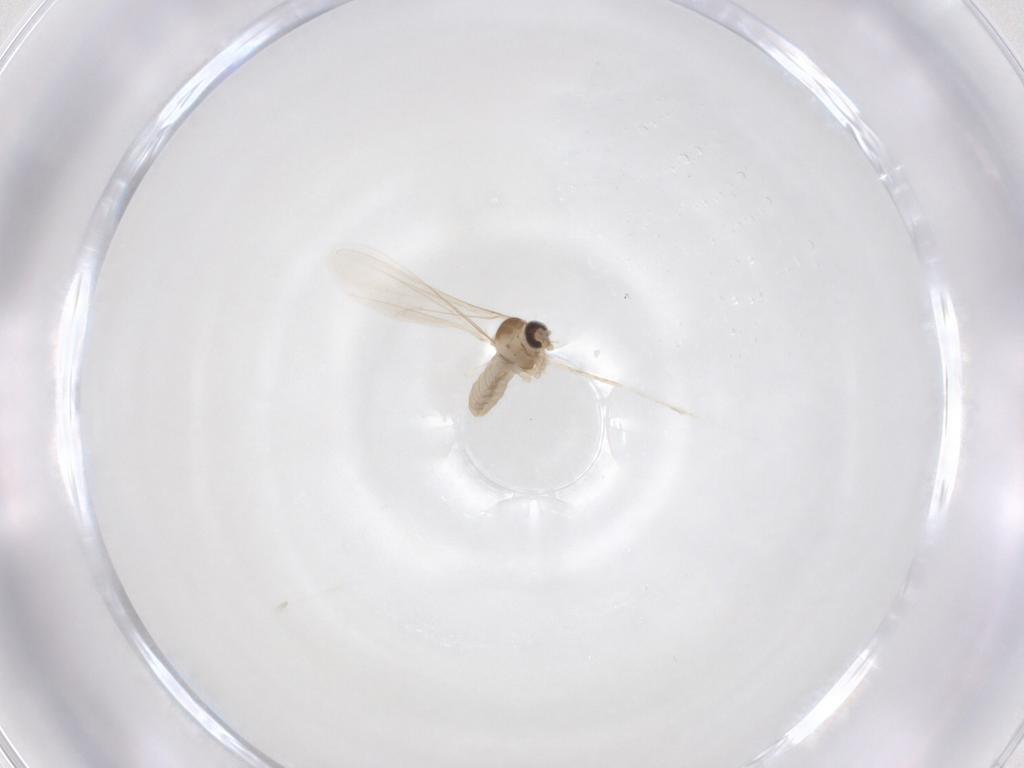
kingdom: Animalia
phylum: Arthropoda
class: Insecta
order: Diptera
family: Cecidomyiidae
